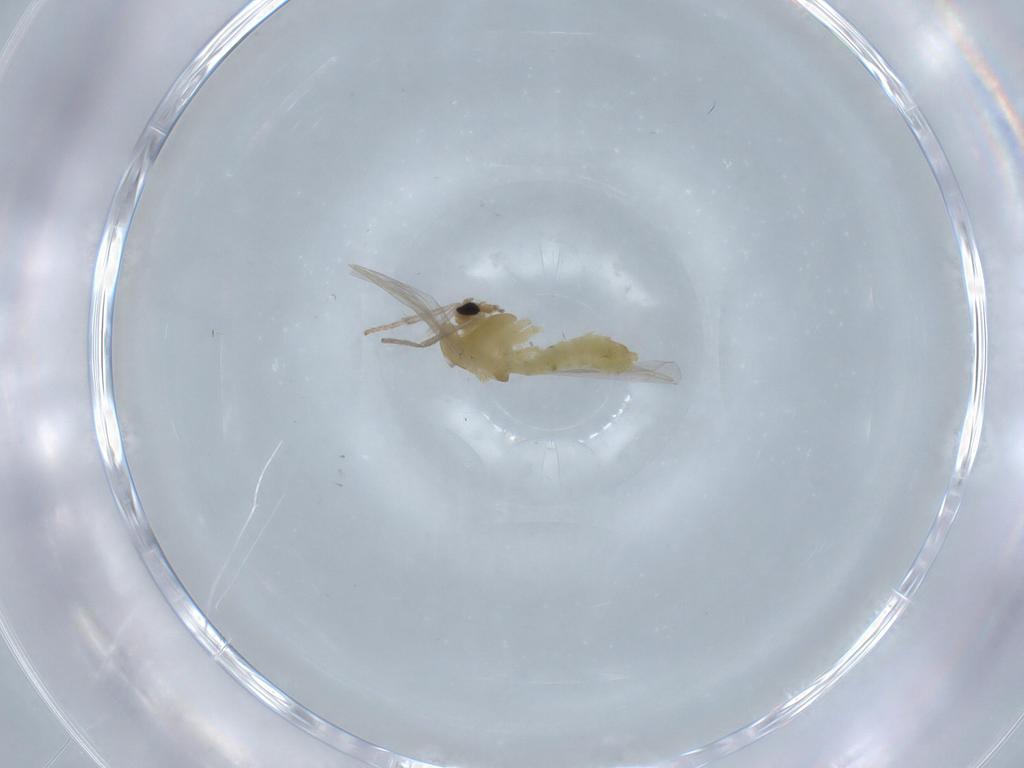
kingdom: Animalia
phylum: Arthropoda
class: Insecta
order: Diptera
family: Chironomidae
